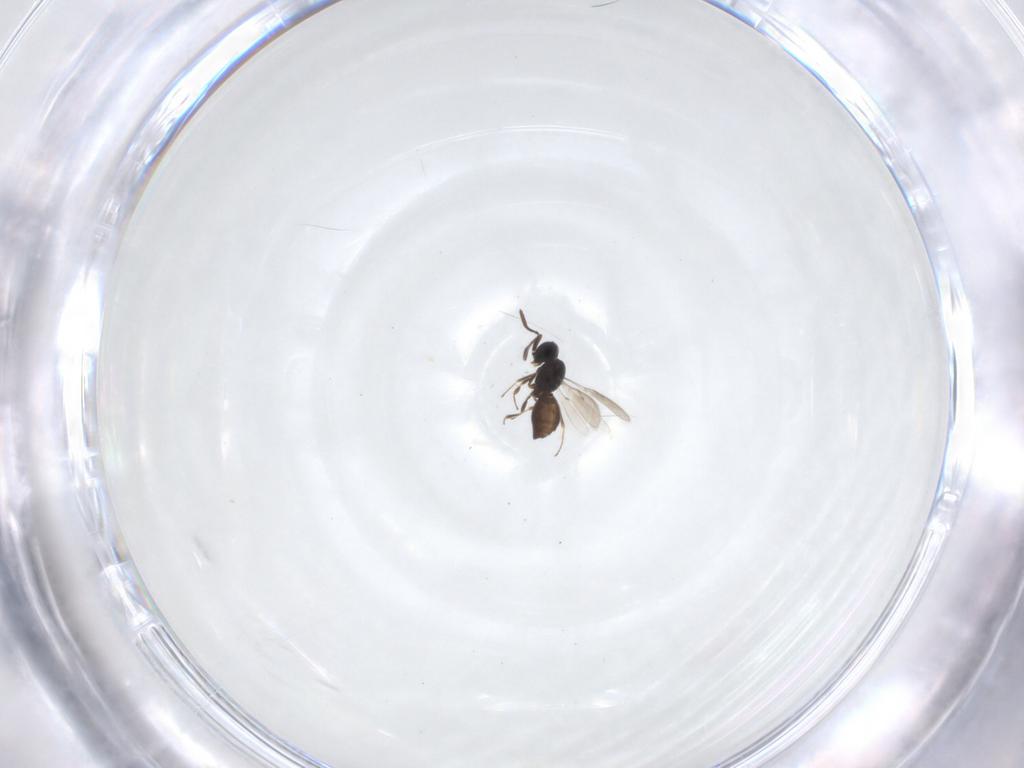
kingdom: Animalia
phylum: Arthropoda
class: Insecta
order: Hymenoptera
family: Scelionidae
